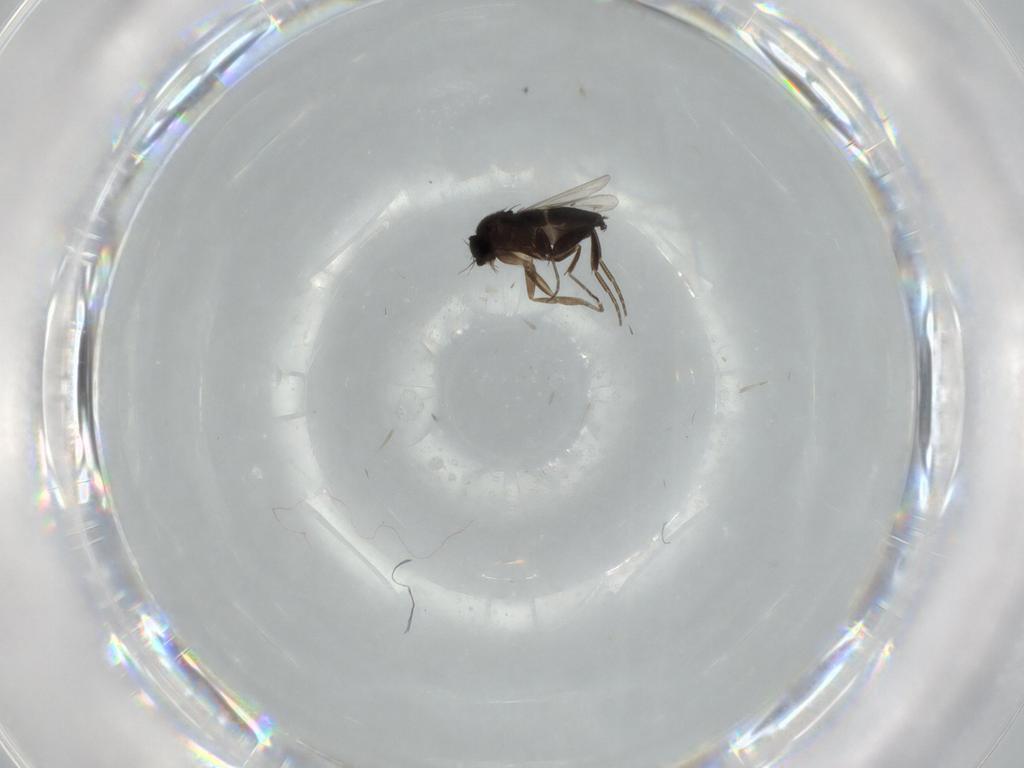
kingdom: Animalia
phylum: Arthropoda
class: Insecta
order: Diptera
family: Phoridae
